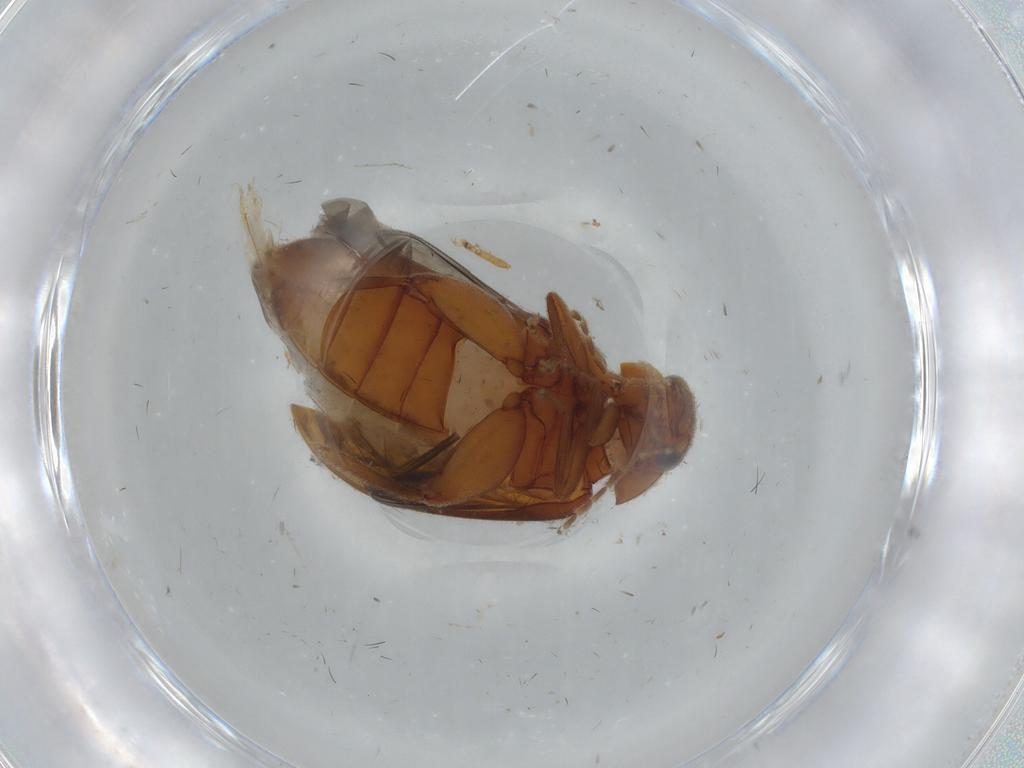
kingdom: Animalia
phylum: Arthropoda
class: Insecta
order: Coleoptera
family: Scirtidae
